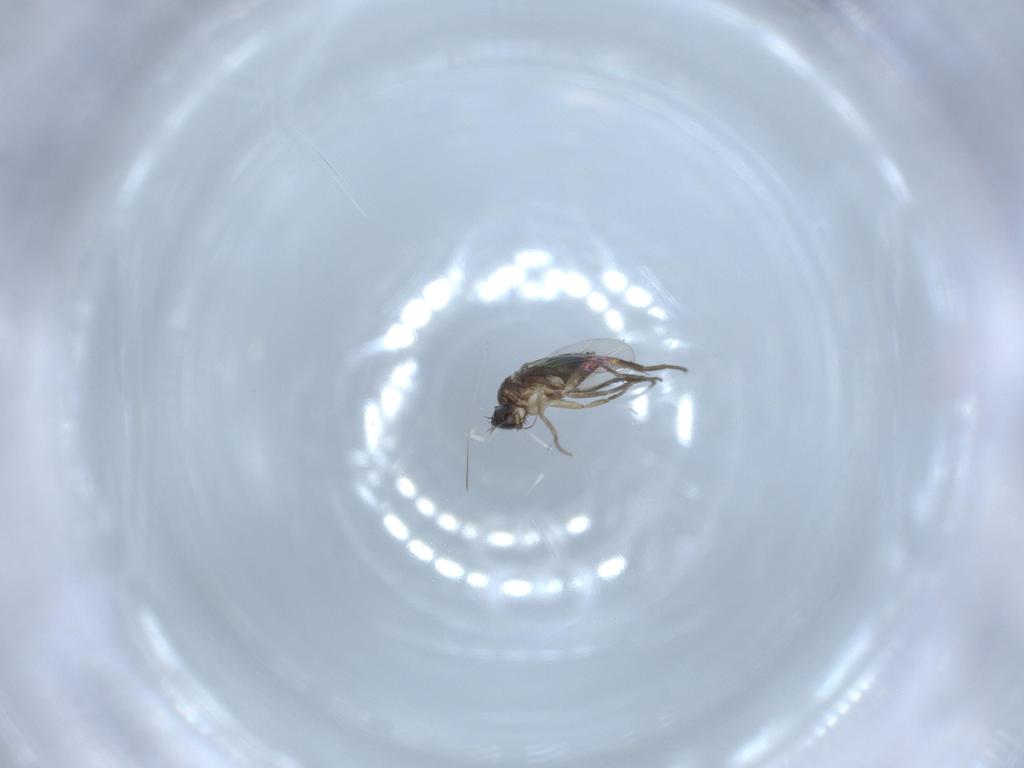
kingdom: Animalia
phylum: Arthropoda
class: Insecta
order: Diptera
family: Phoridae
